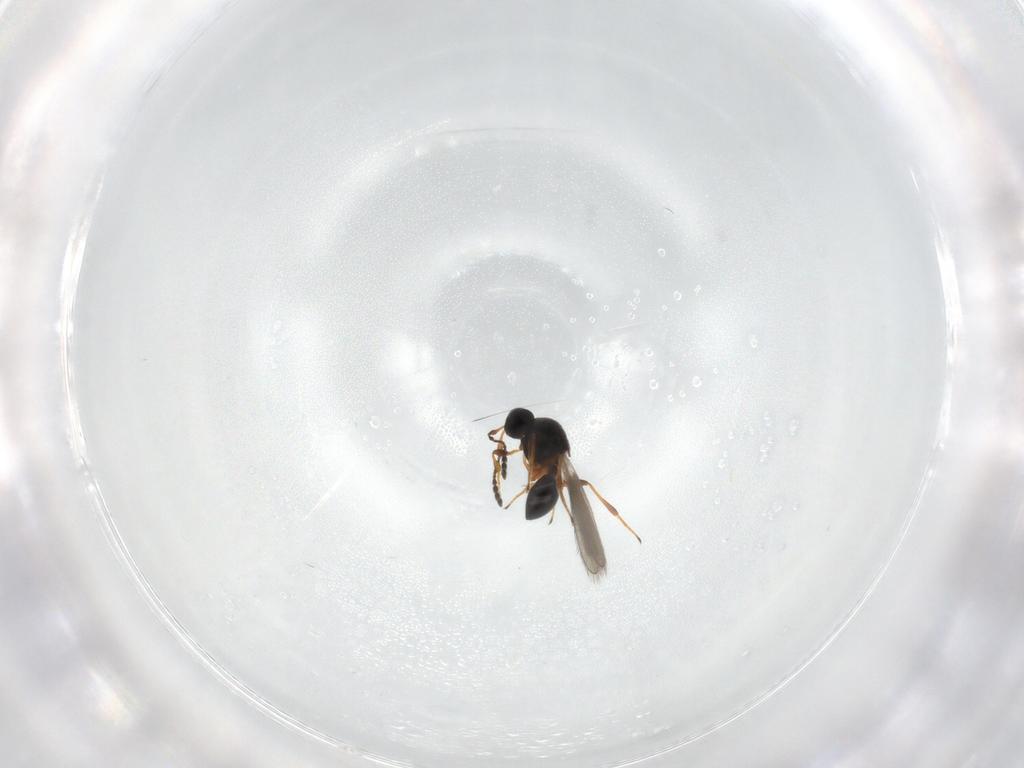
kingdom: Animalia
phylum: Arthropoda
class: Insecta
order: Hymenoptera
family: Platygastridae
